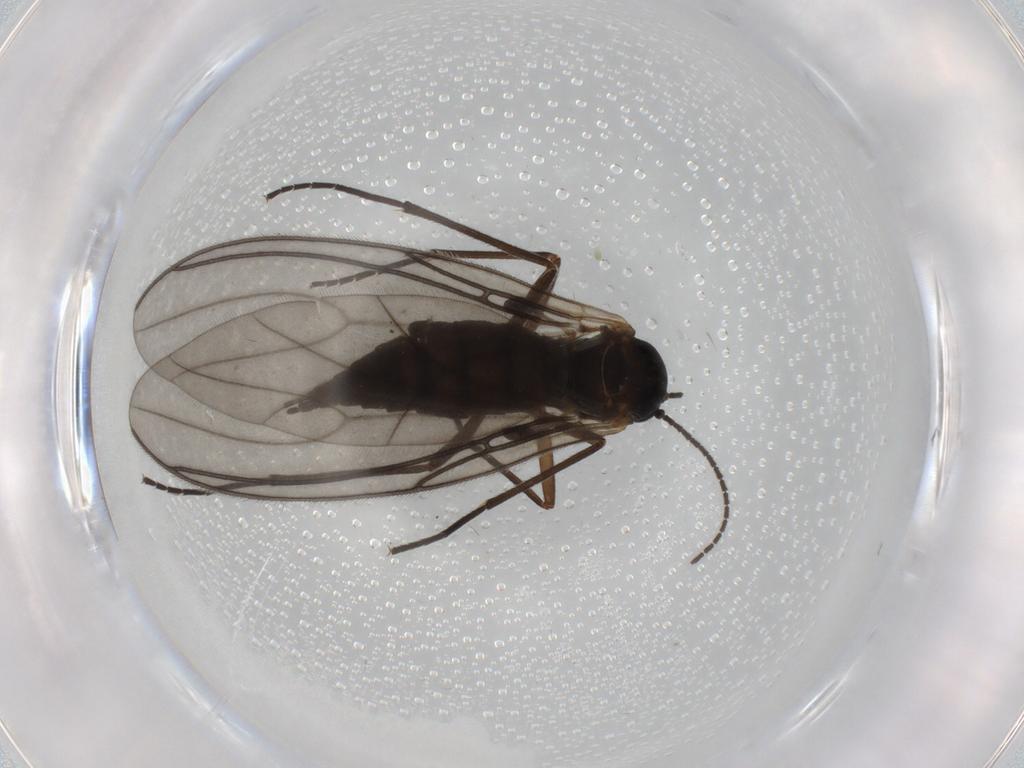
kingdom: Animalia
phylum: Arthropoda
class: Insecta
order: Diptera
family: Sciaridae
